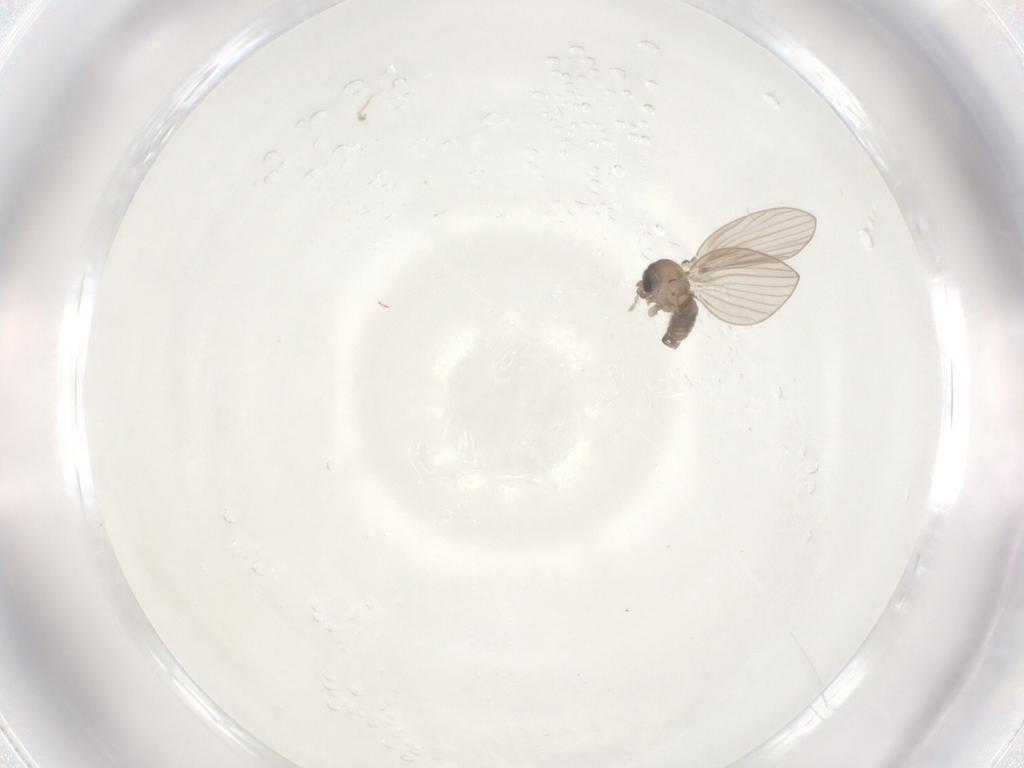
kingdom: Animalia
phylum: Arthropoda
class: Insecta
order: Diptera
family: Psychodidae
